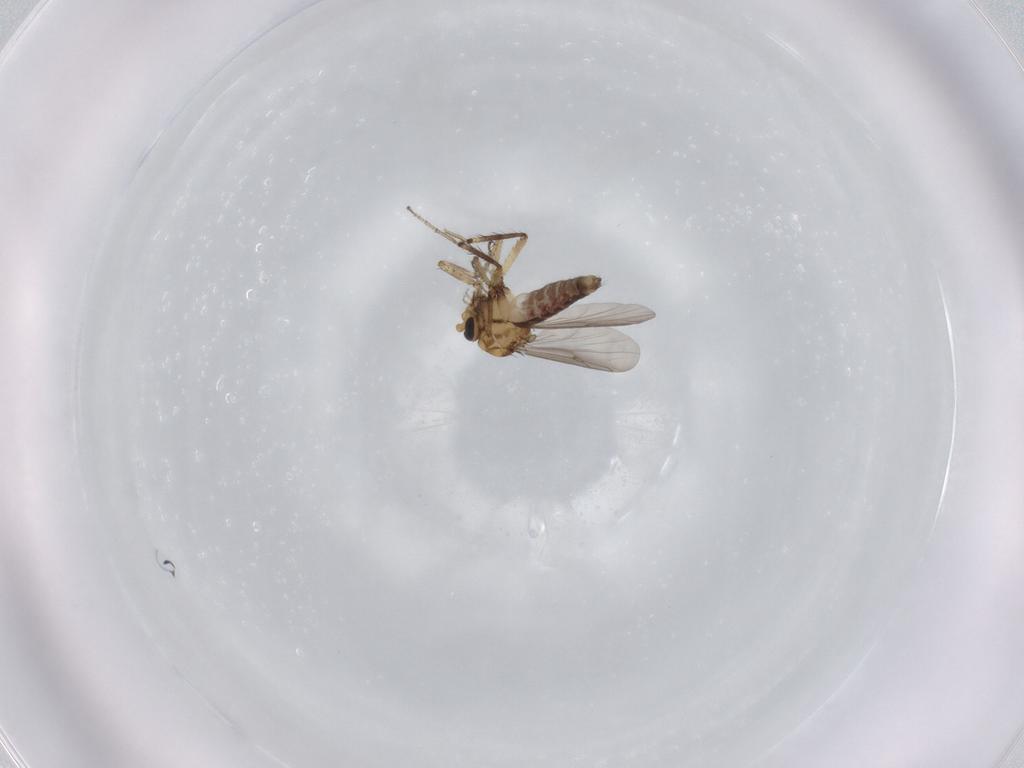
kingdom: Animalia
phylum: Arthropoda
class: Insecta
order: Diptera
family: Ceratopogonidae
